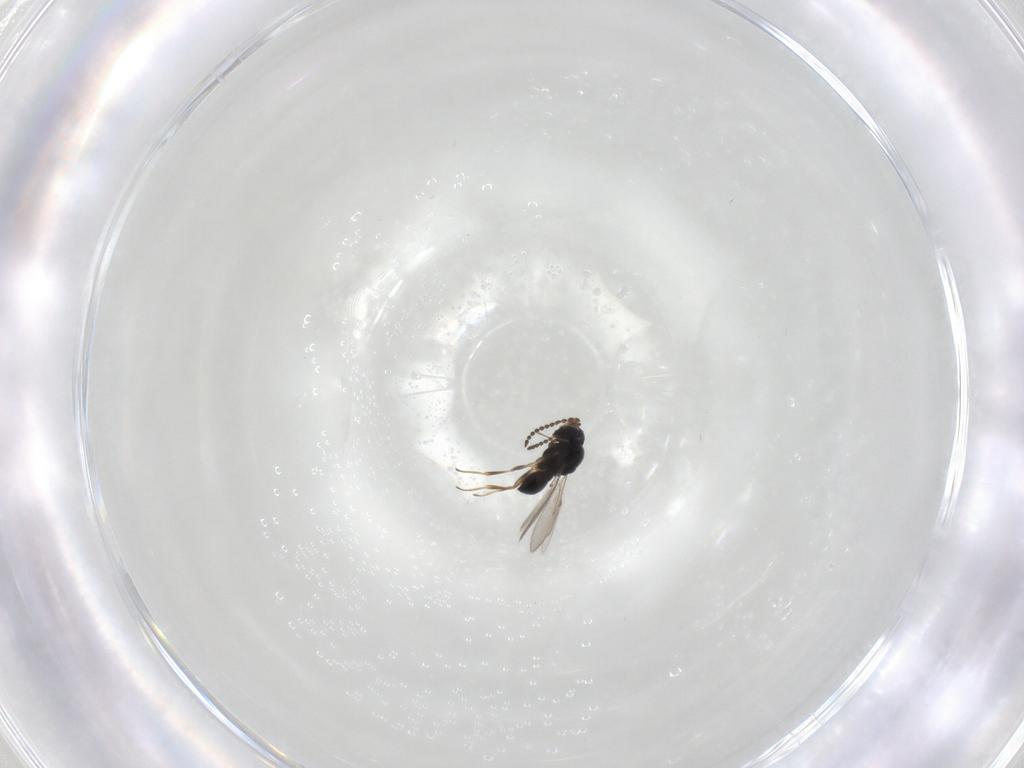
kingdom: Animalia
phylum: Arthropoda
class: Insecta
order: Hymenoptera
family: Scelionidae
